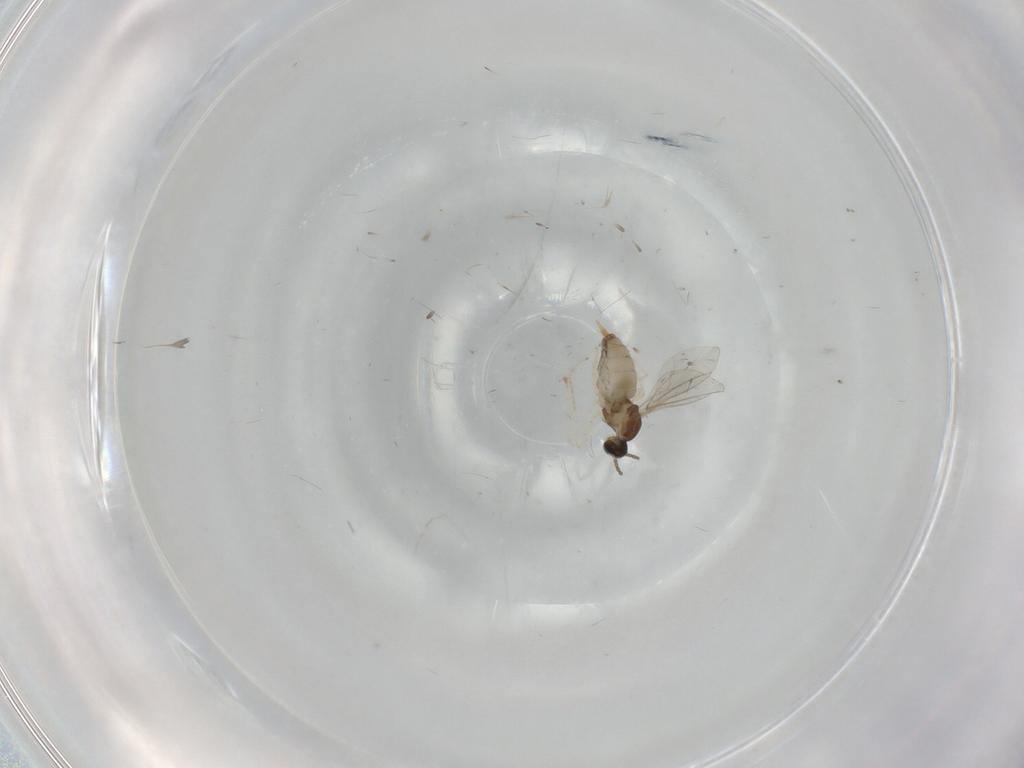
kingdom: Animalia
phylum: Arthropoda
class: Insecta
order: Diptera
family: Cecidomyiidae
